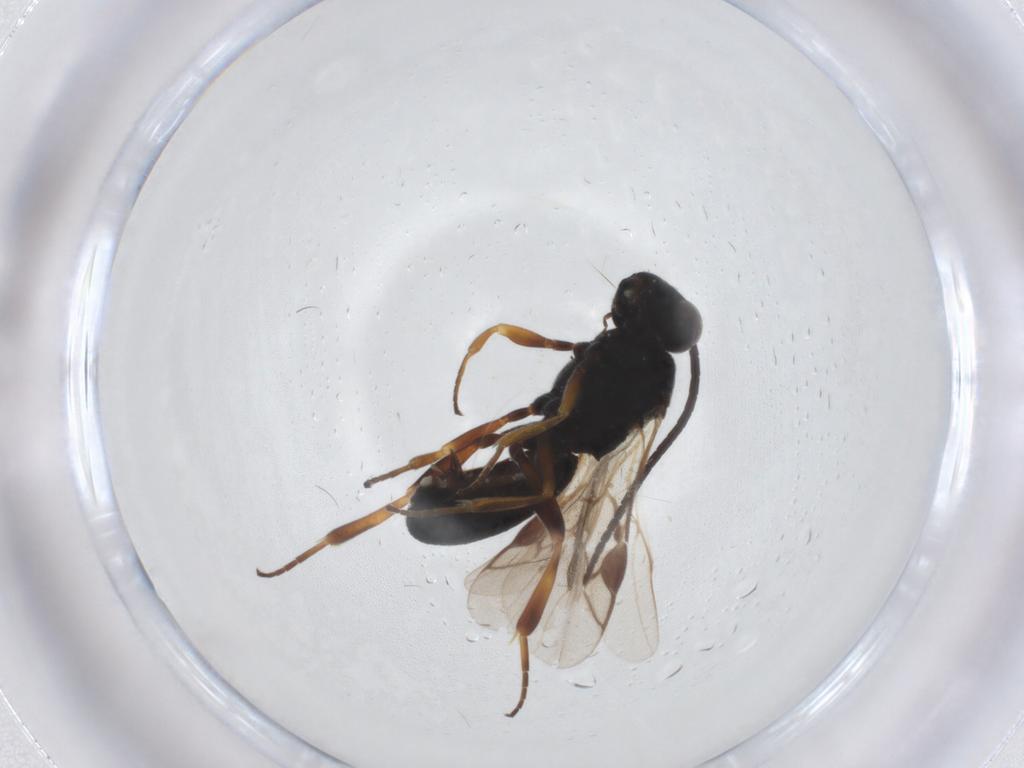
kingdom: Animalia
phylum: Arthropoda
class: Insecta
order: Hymenoptera
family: Braconidae
